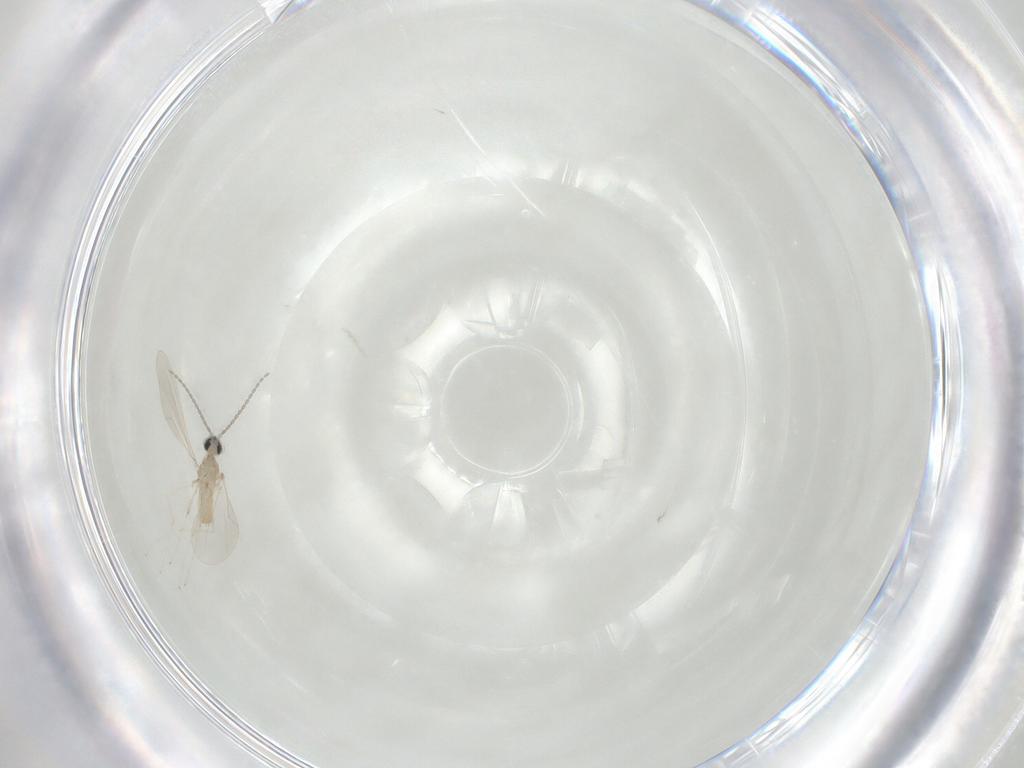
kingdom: Animalia
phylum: Arthropoda
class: Insecta
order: Diptera
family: Cecidomyiidae
